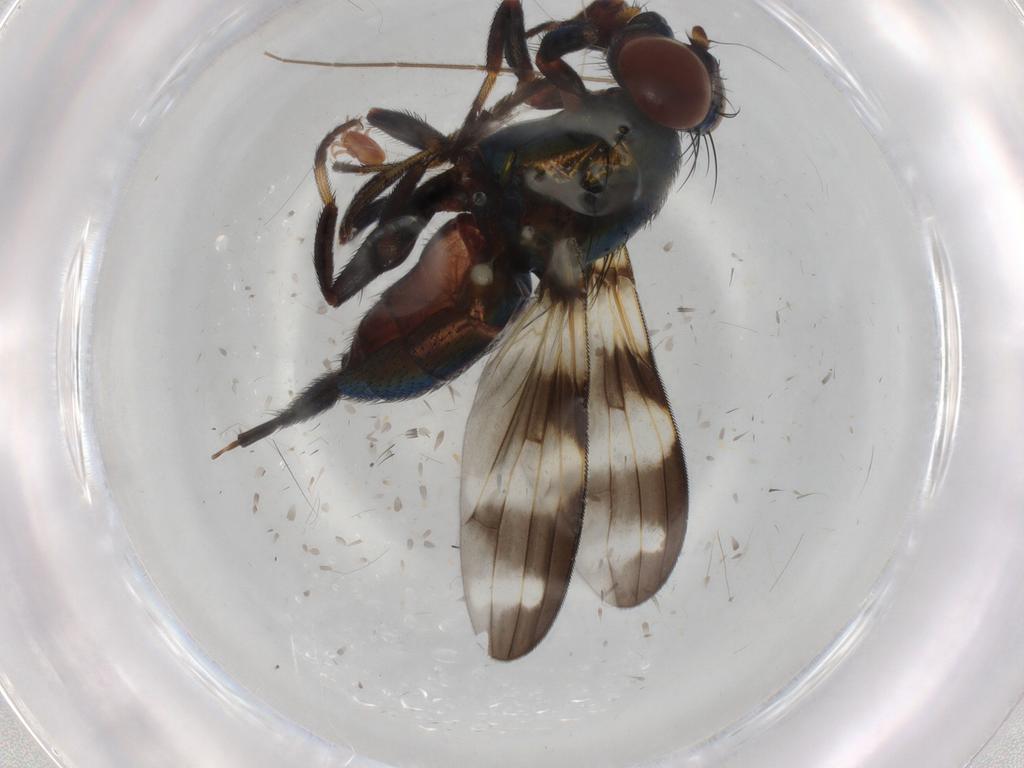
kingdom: Animalia
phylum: Arthropoda
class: Insecta
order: Diptera
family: Ulidiidae
